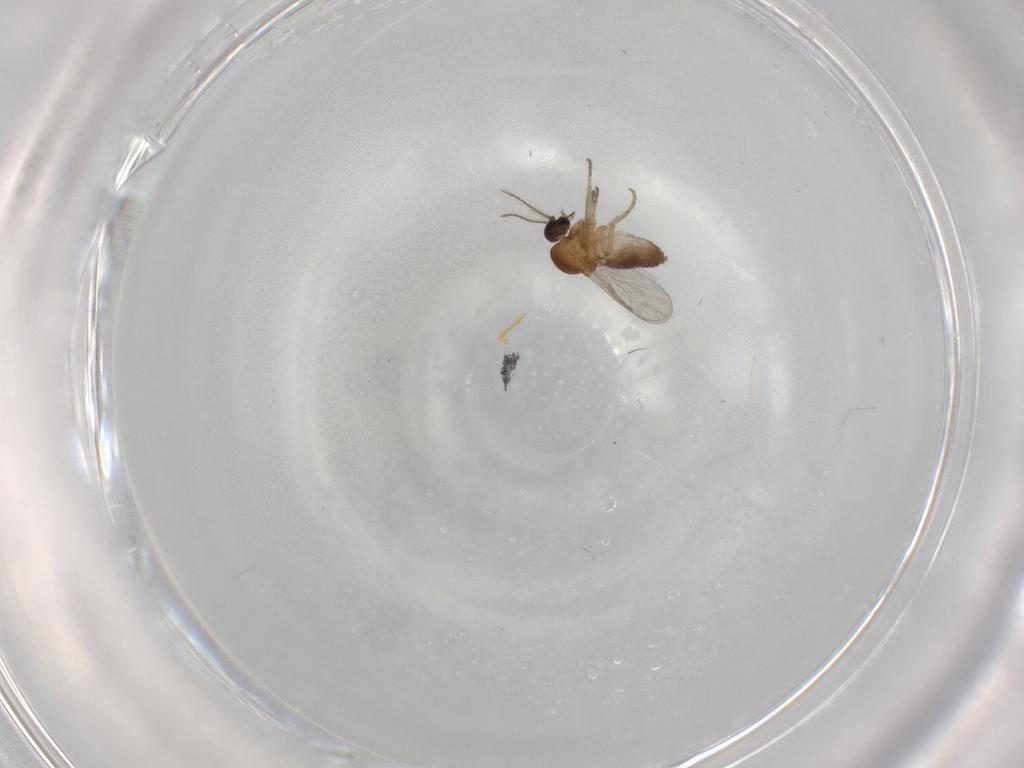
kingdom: Animalia
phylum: Arthropoda
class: Insecta
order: Diptera
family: Ceratopogonidae
